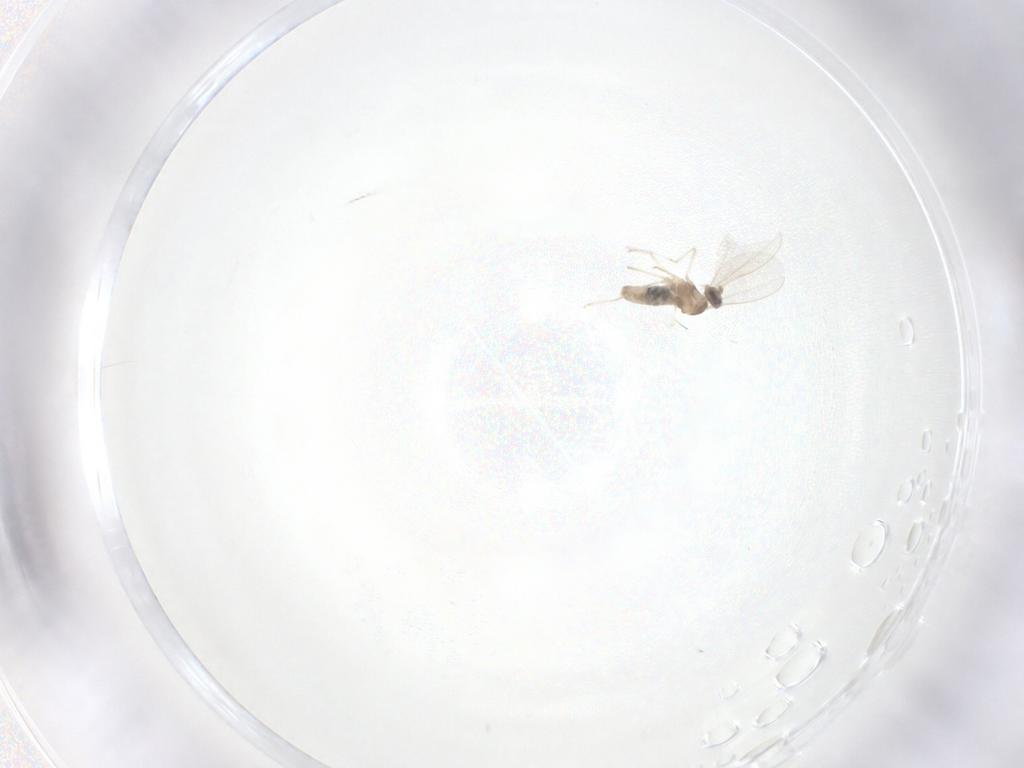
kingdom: Animalia
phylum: Arthropoda
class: Insecta
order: Diptera
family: Cecidomyiidae
